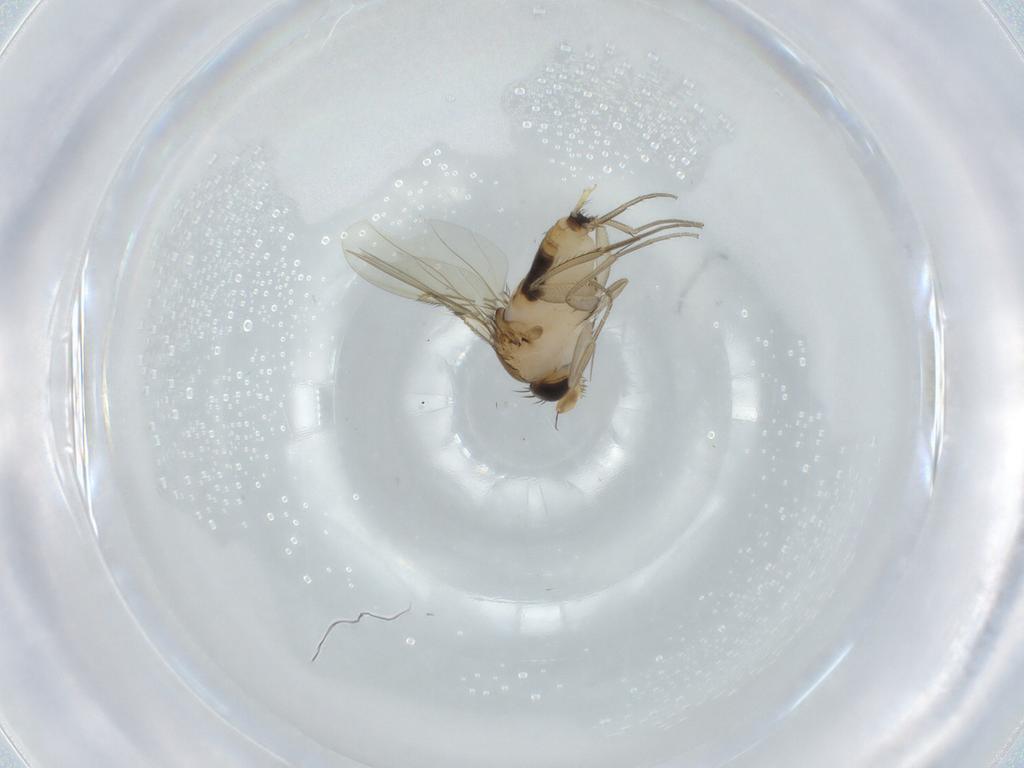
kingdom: Animalia
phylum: Arthropoda
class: Insecta
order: Diptera
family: Phoridae
